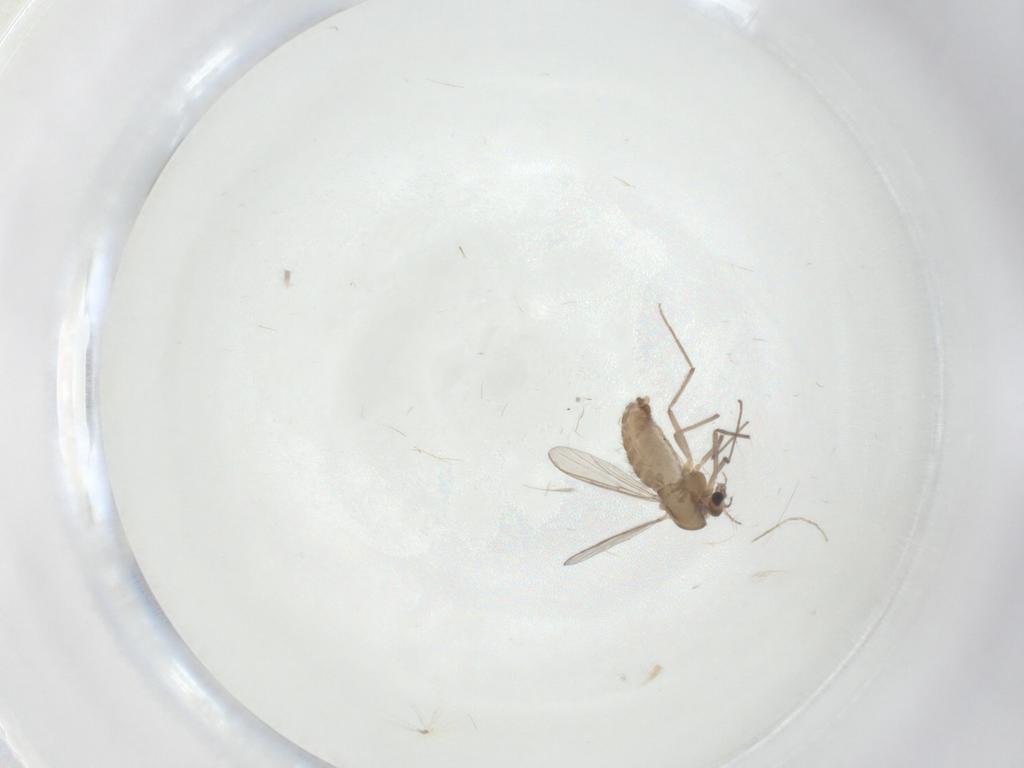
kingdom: Animalia
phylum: Arthropoda
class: Insecta
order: Diptera
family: Chironomidae
